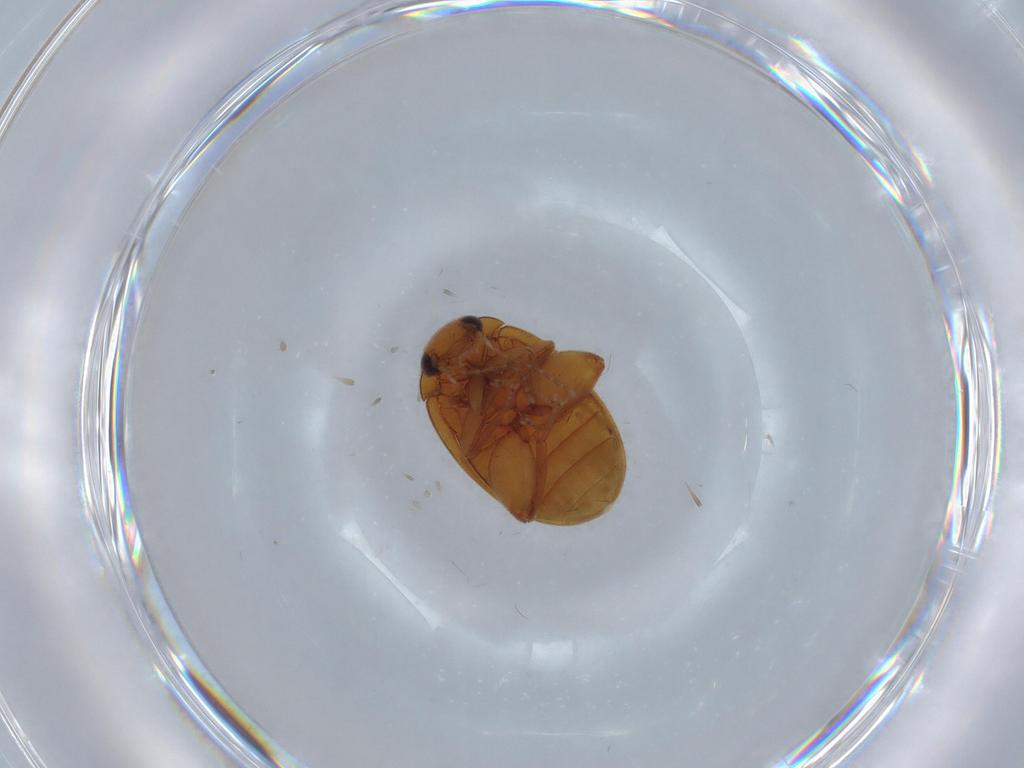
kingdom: Animalia
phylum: Arthropoda
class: Insecta
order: Coleoptera
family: Scirtidae
